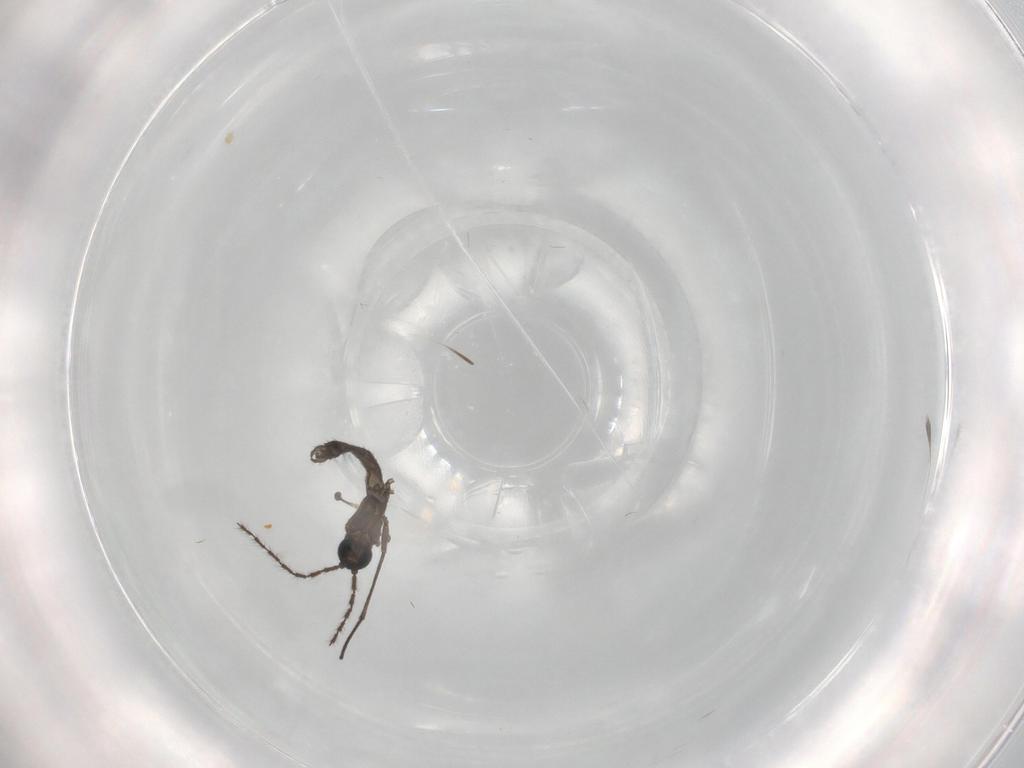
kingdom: Animalia
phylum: Arthropoda
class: Insecta
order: Diptera
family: Sciaridae
